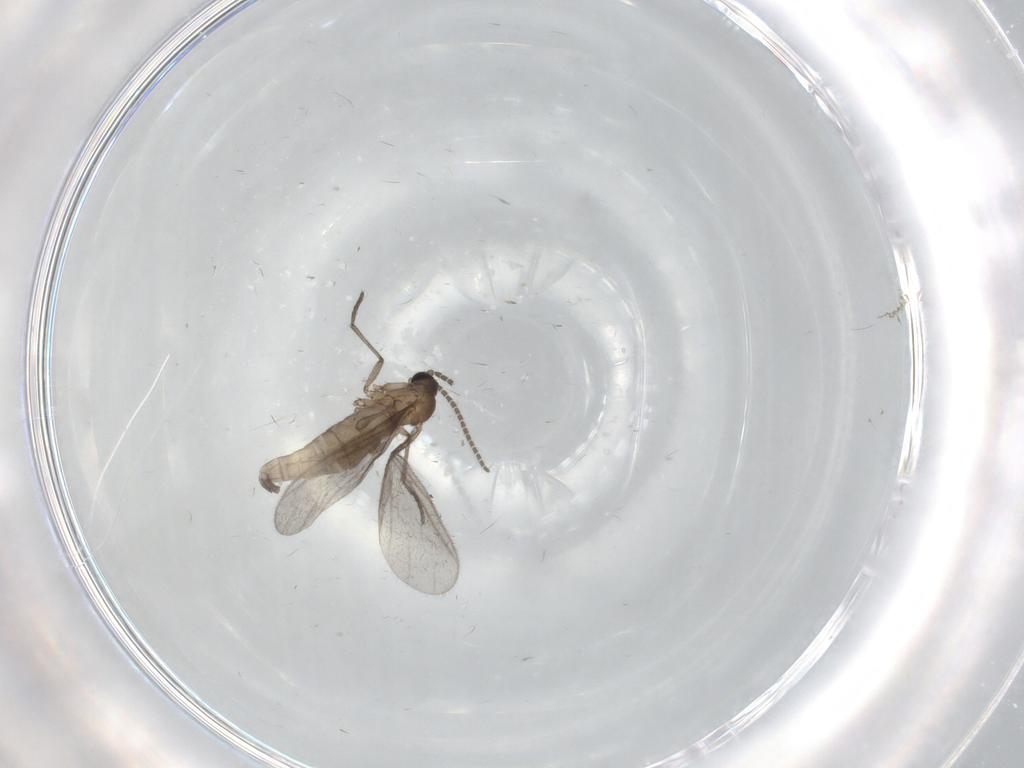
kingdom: Animalia
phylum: Arthropoda
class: Insecta
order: Diptera
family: Sciaridae
